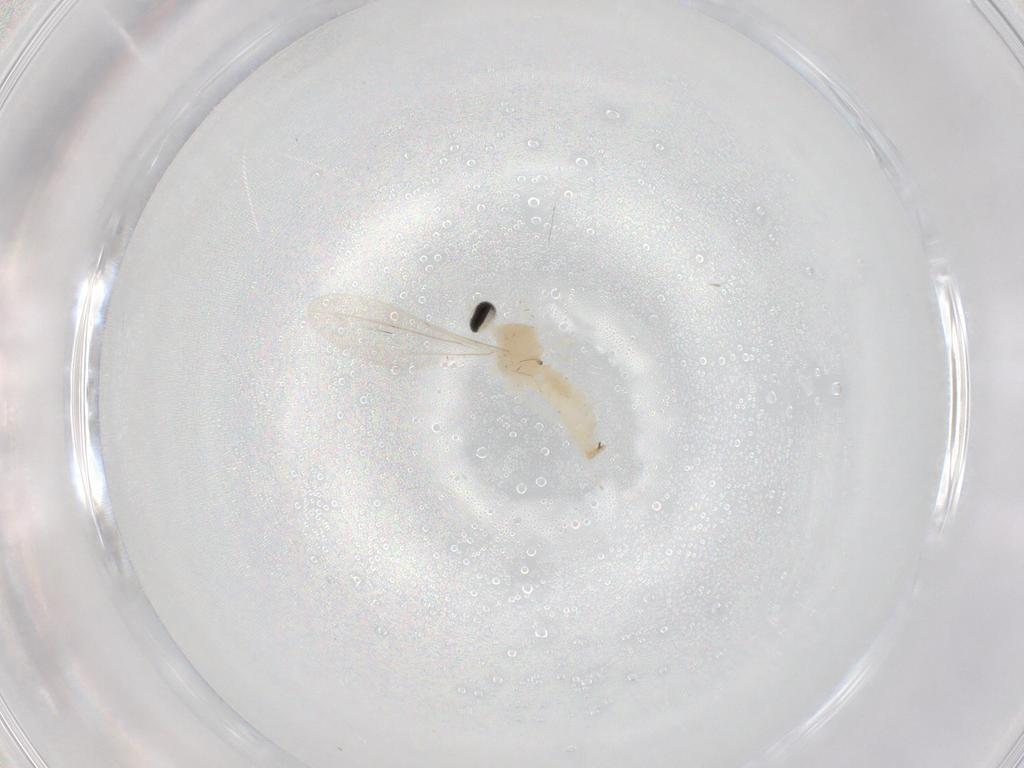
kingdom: Animalia
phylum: Arthropoda
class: Insecta
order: Diptera
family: Cecidomyiidae
